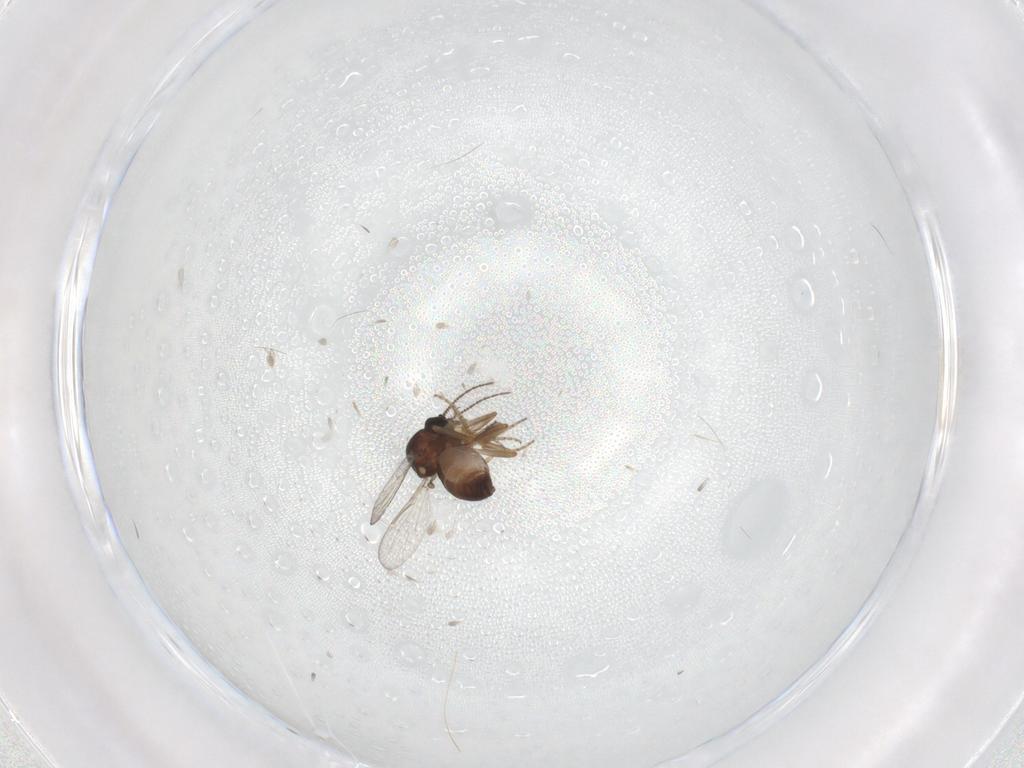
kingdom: Animalia
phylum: Arthropoda
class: Insecta
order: Diptera
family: Ceratopogonidae
